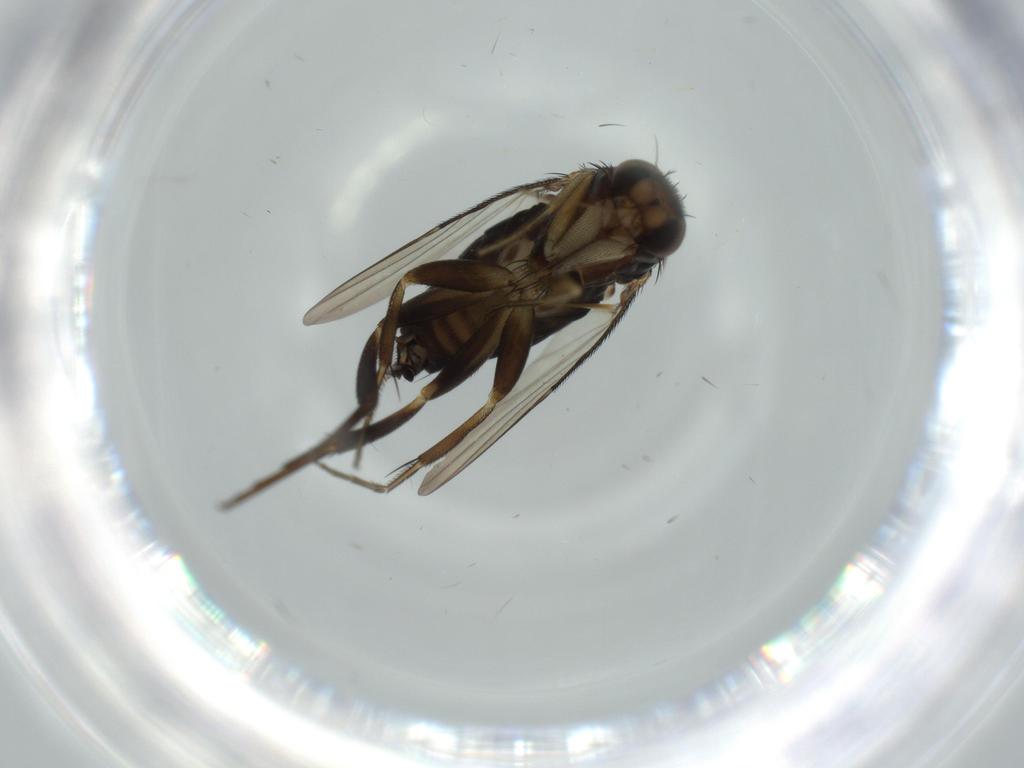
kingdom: Animalia
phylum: Arthropoda
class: Insecta
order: Diptera
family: Phoridae
